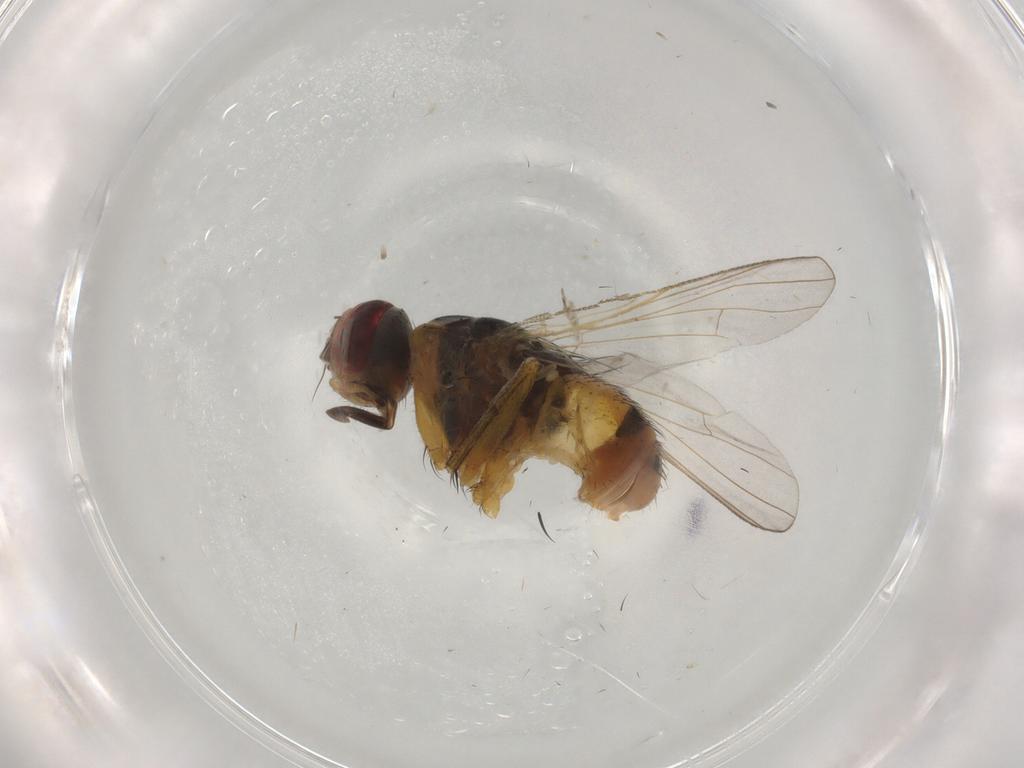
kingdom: Animalia
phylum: Arthropoda
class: Insecta
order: Diptera
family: Muscidae
